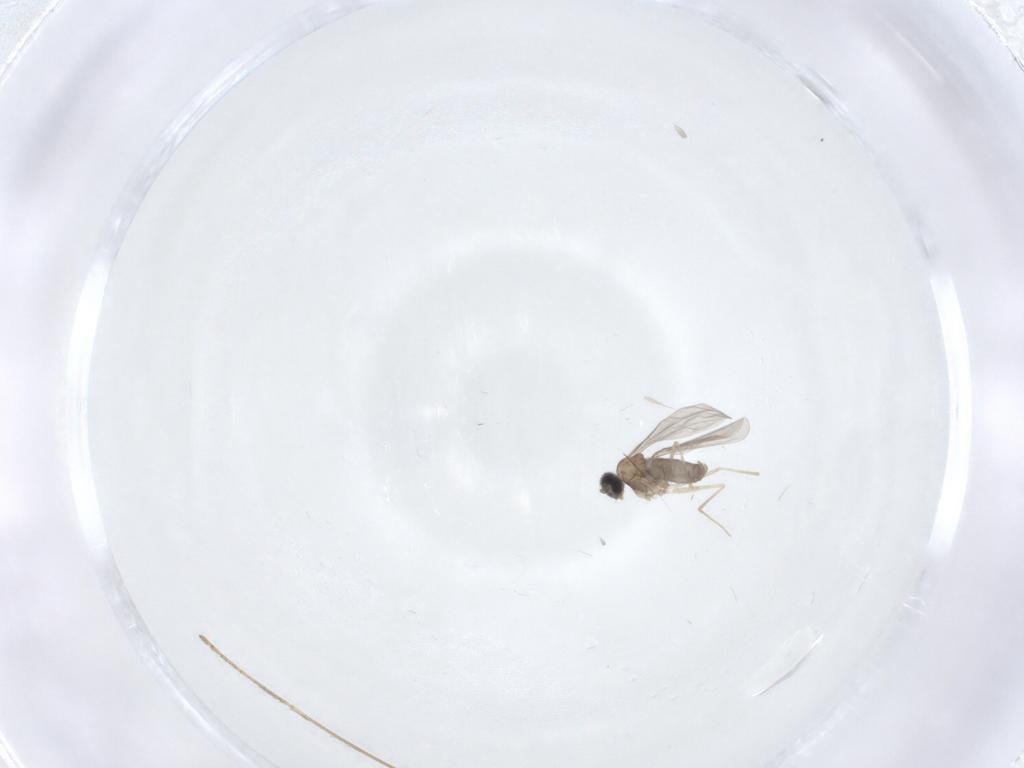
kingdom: Animalia
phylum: Arthropoda
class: Insecta
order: Diptera
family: Cecidomyiidae
